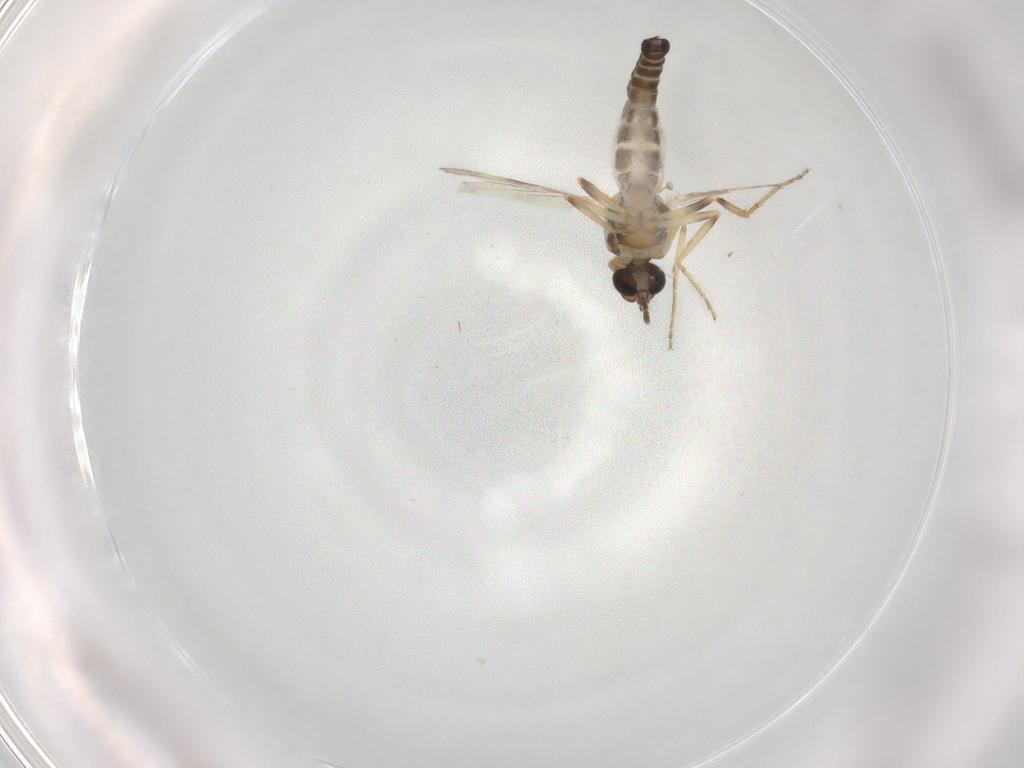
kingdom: Animalia
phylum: Arthropoda
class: Insecta
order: Diptera
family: Ceratopogonidae
